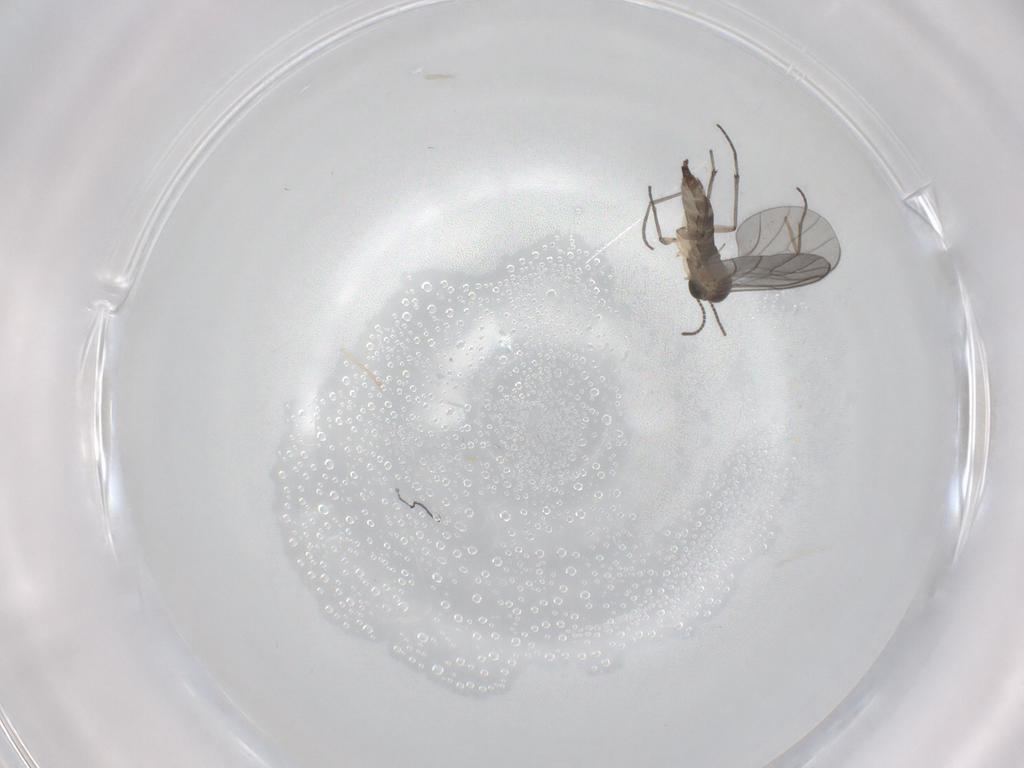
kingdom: Animalia
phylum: Arthropoda
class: Insecta
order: Diptera
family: Sciaridae
